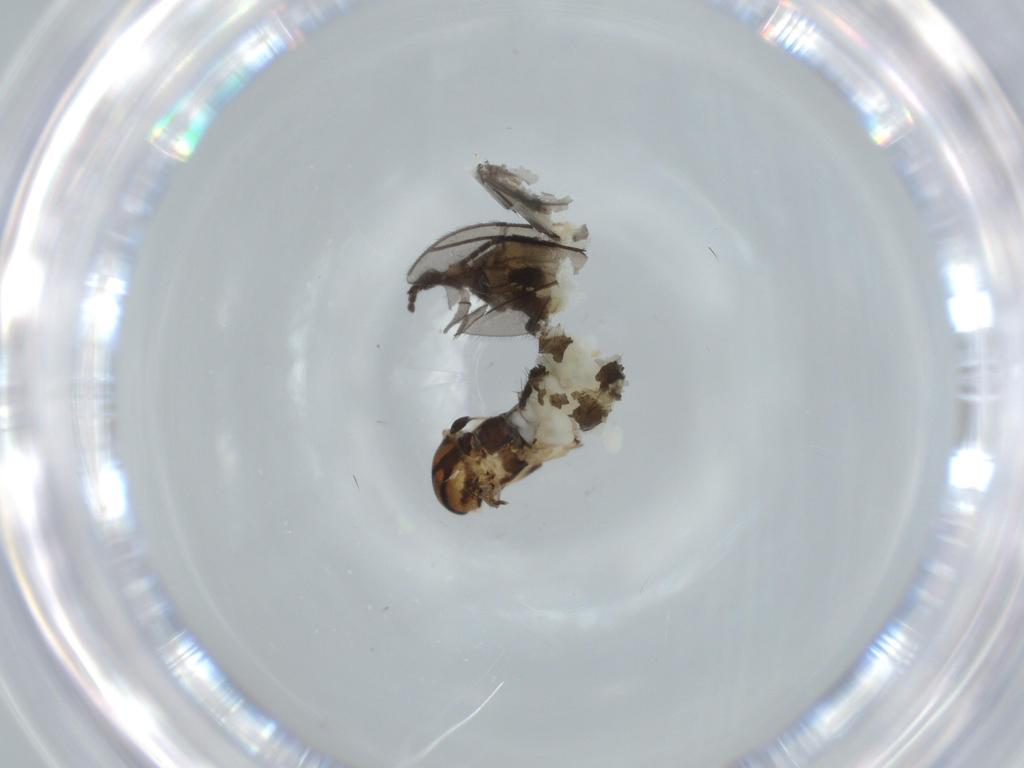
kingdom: Animalia
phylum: Arthropoda
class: Insecta
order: Diptera
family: Sciaridae
